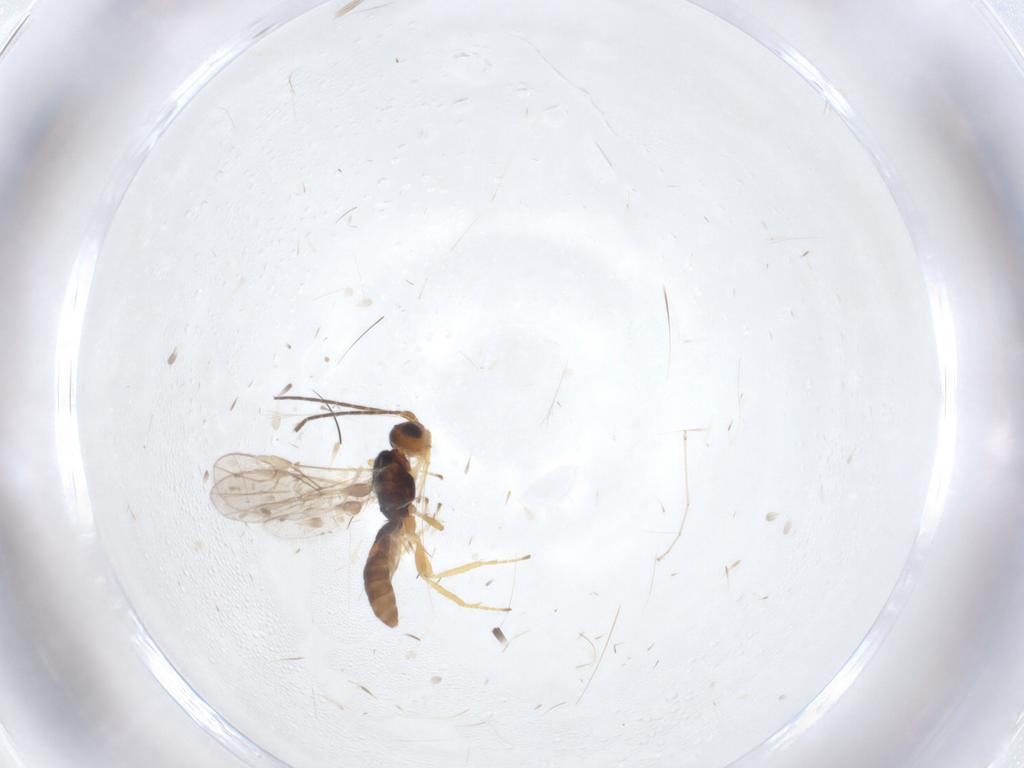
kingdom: Animalia
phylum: Arthropoda
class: Insecta
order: Hymenoptera
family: Braconidae
